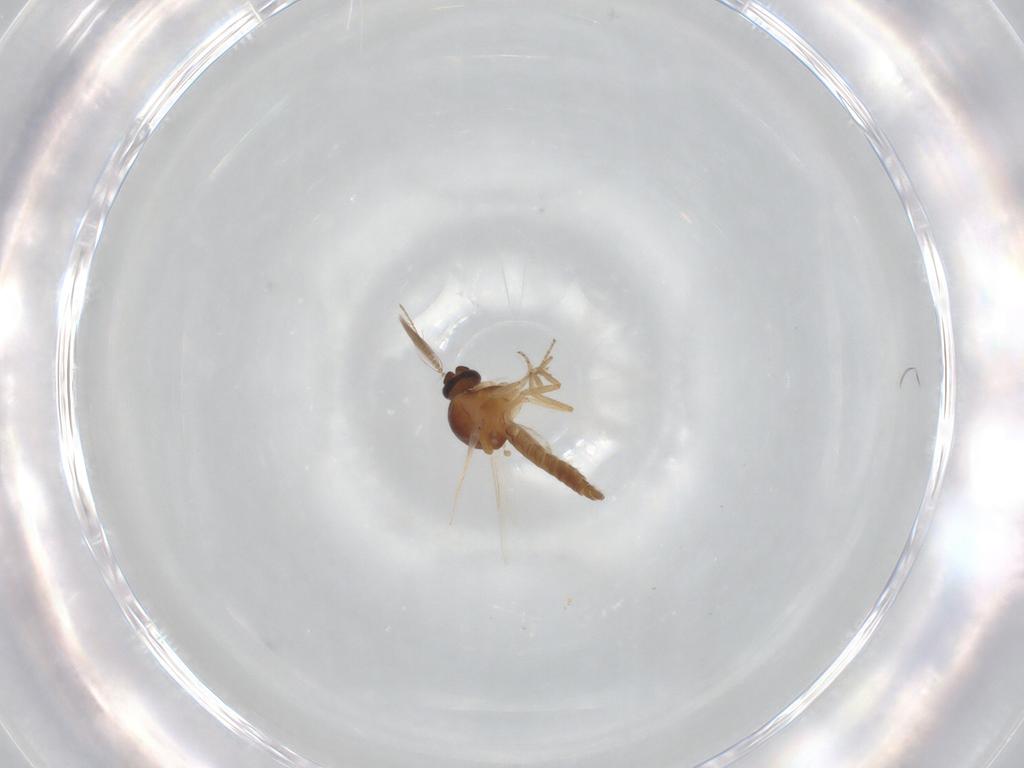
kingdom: Animalia
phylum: Arthropoda
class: Insecta
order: Diptera
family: Ceratopogonidae
